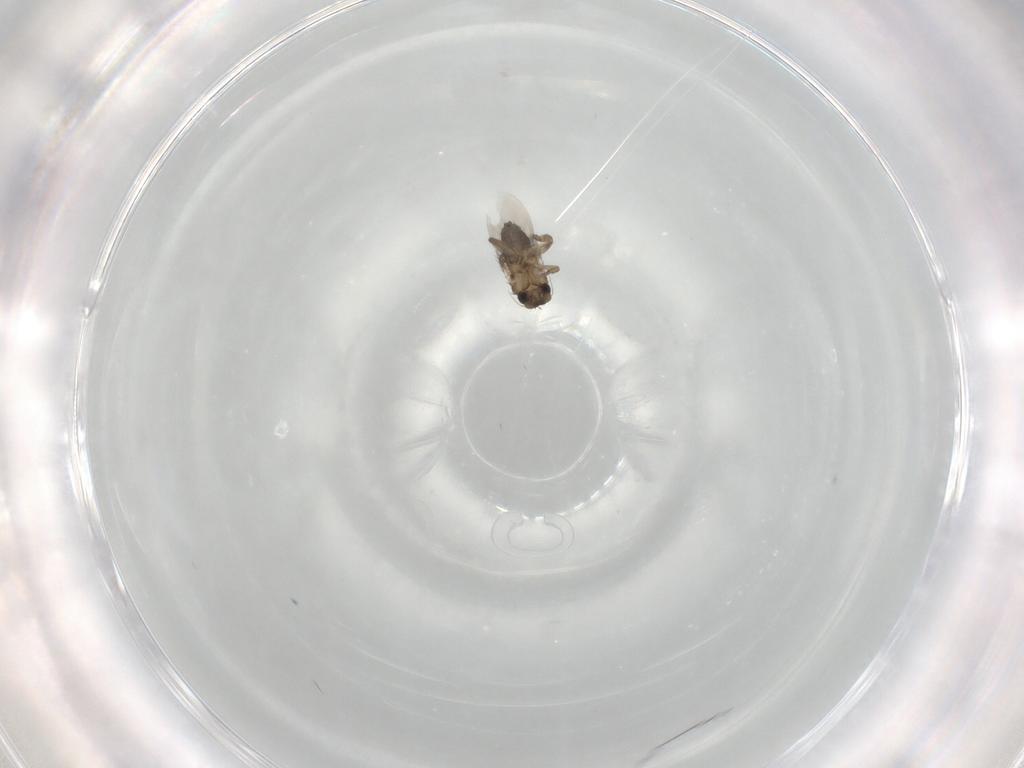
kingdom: Animalia
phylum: Arthropoda
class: Insecta
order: Diptera
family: Phoridae
